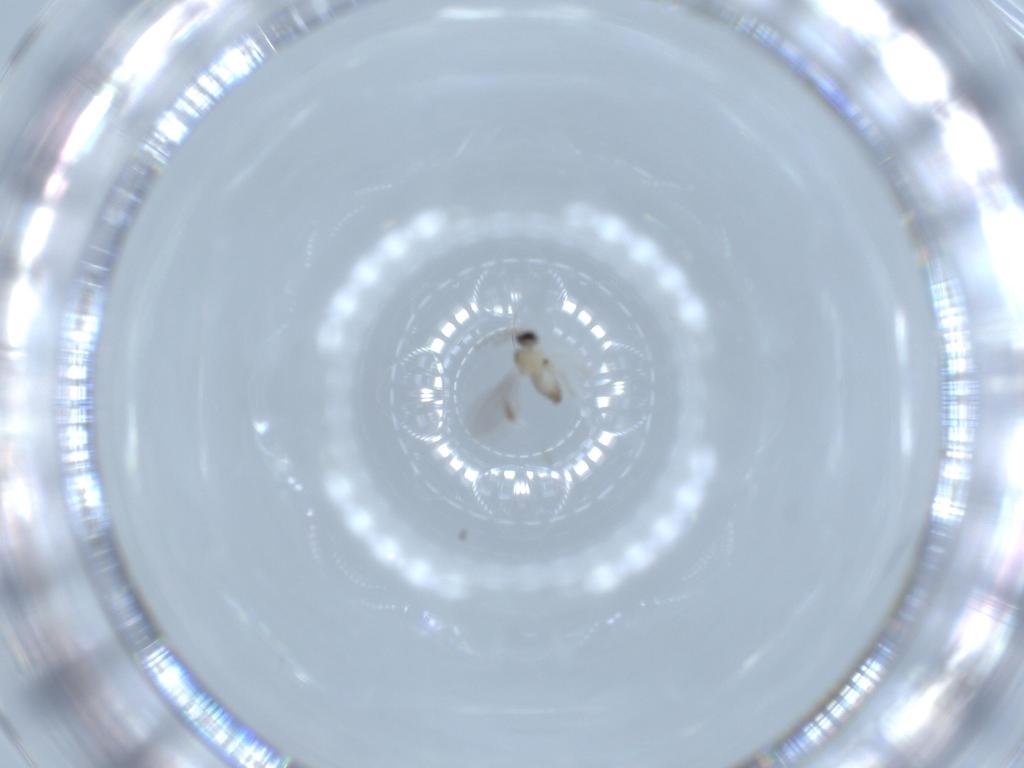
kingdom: Animalia
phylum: Arthropoda
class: Insecta
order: Diptera
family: Cecidomyiidae
